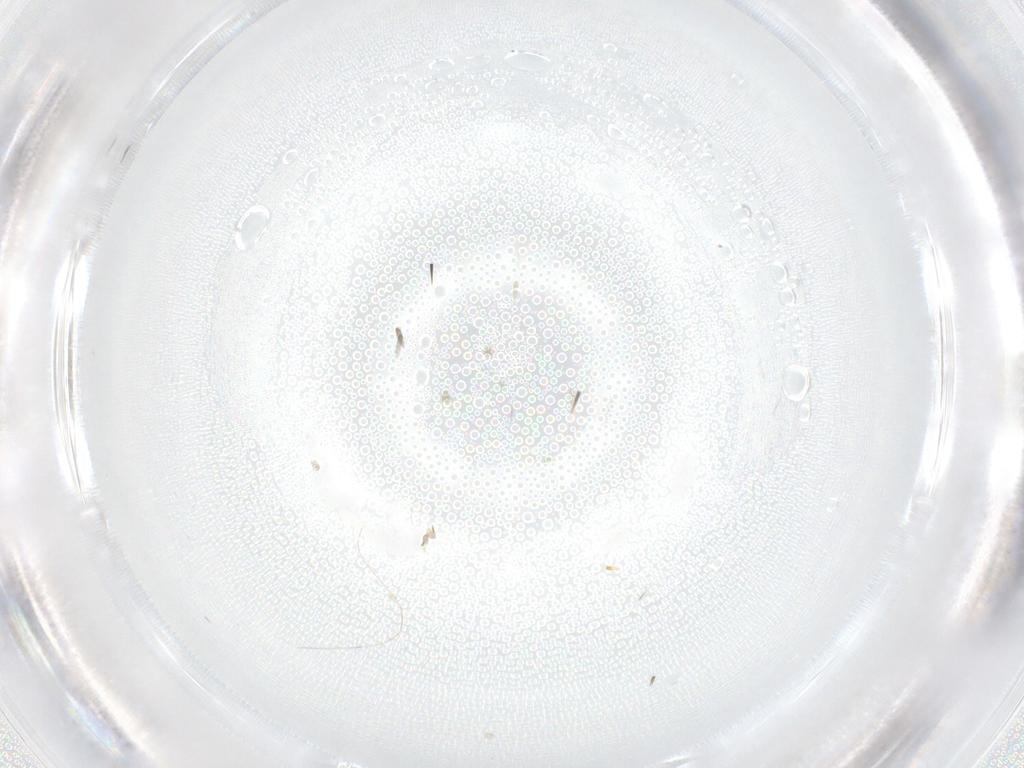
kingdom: Animalia
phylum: Arthropoda
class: Insecta
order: Diptera
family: Cecidomyiidae
